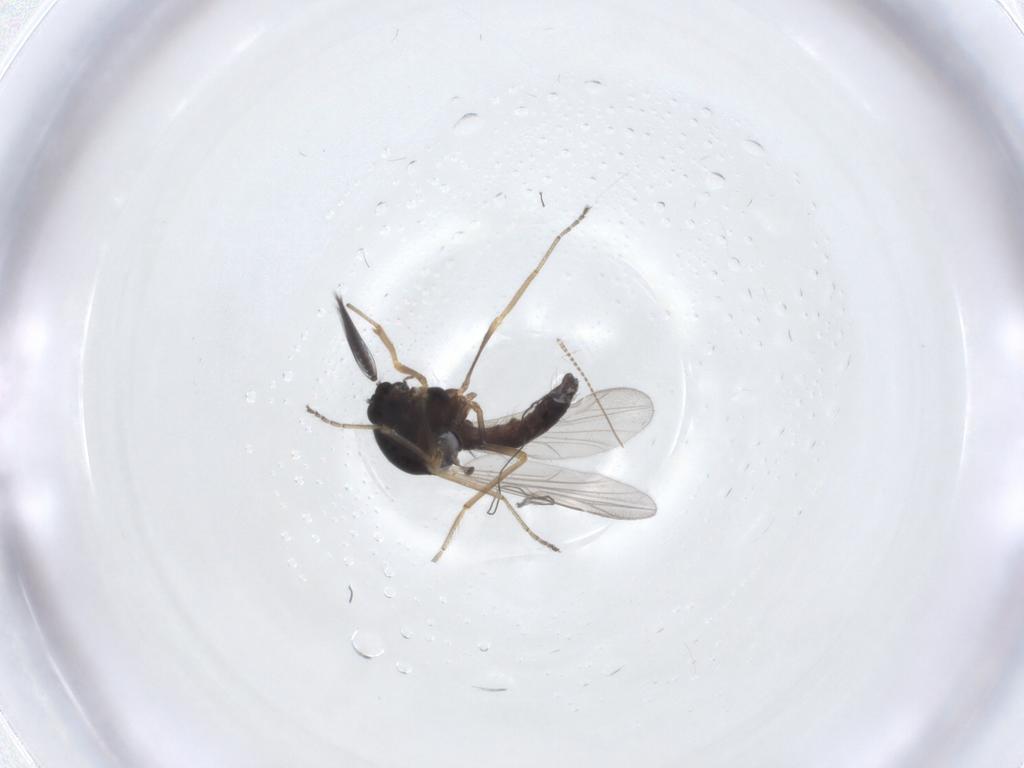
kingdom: Animalia
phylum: Arthropoda
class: Insecta
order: Diptera
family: Ceratopogonidae
